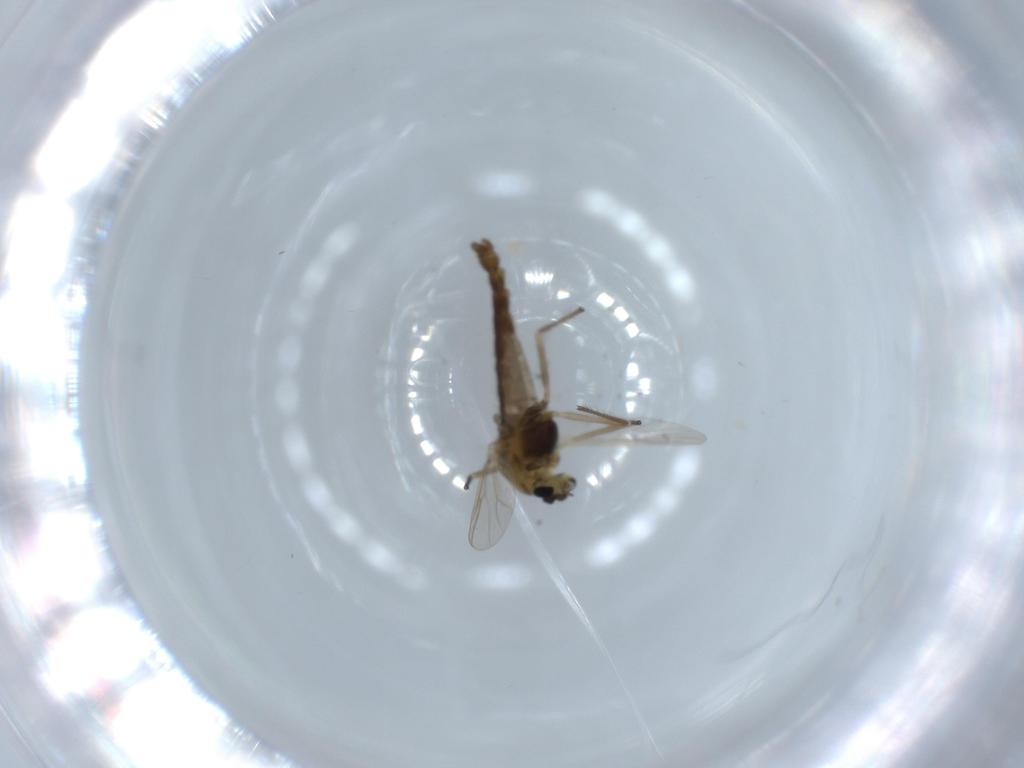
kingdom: Animalia
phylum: Arthropoda
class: Insecta
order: Diptera
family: Chironomidae
